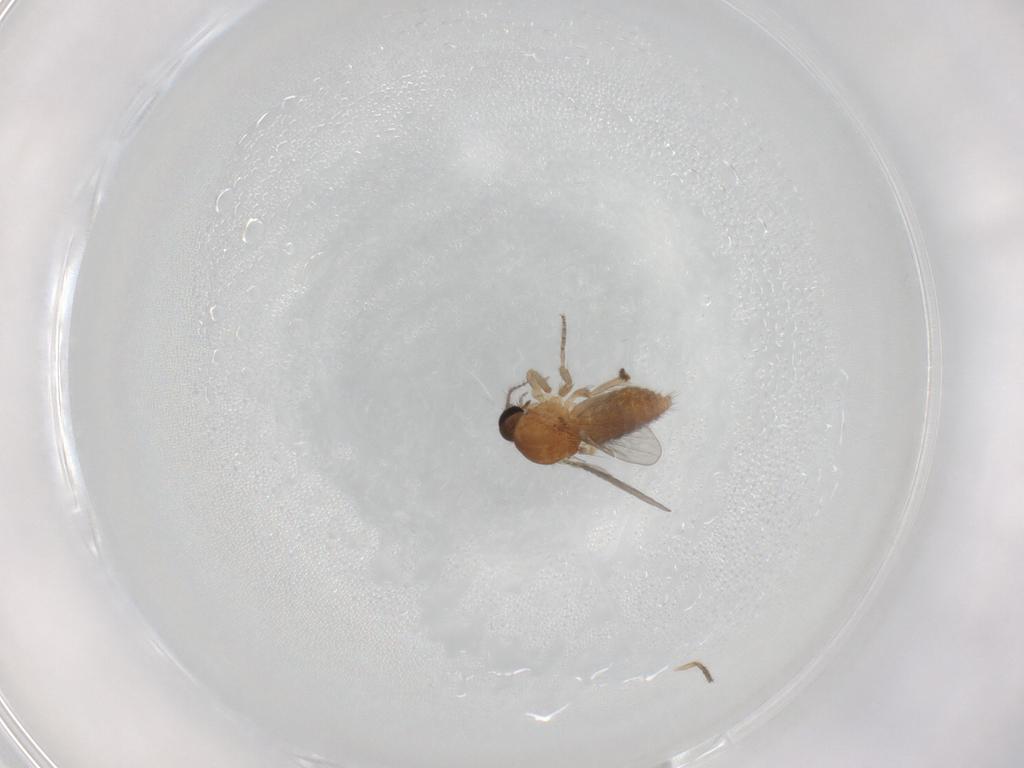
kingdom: Animalia
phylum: Arthropoda
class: Insecta
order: Diptera
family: Ceratopogonidae
